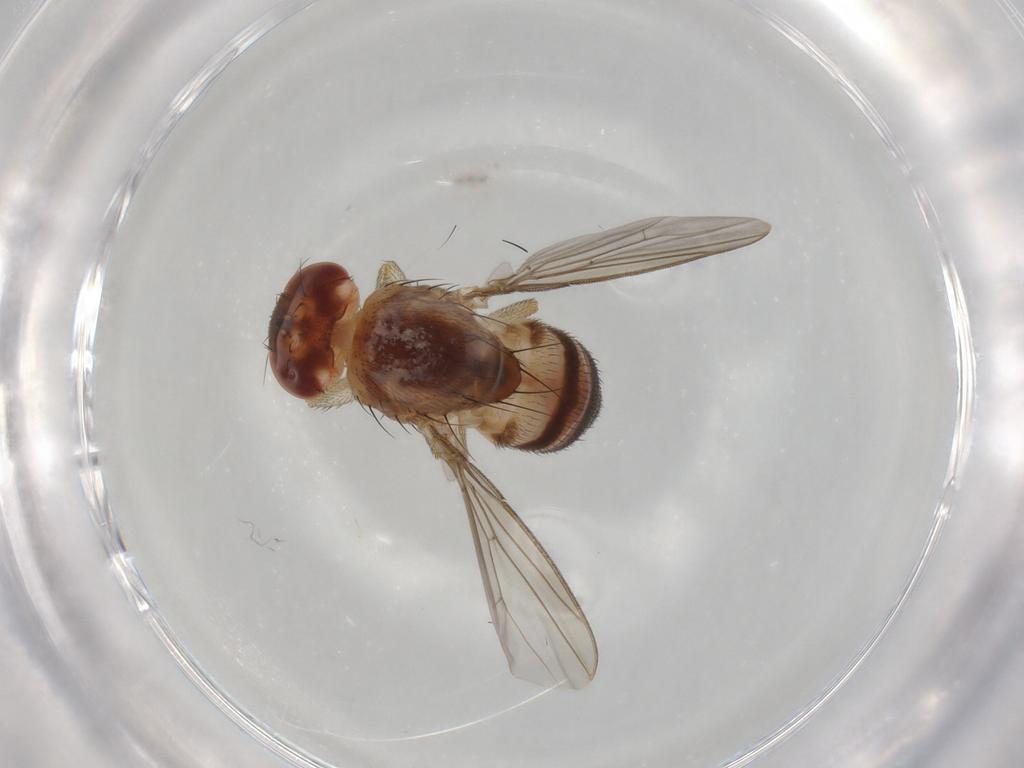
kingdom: Animalia
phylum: Arthropoda
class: Insecta
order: Diptera
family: Drosophilidae
